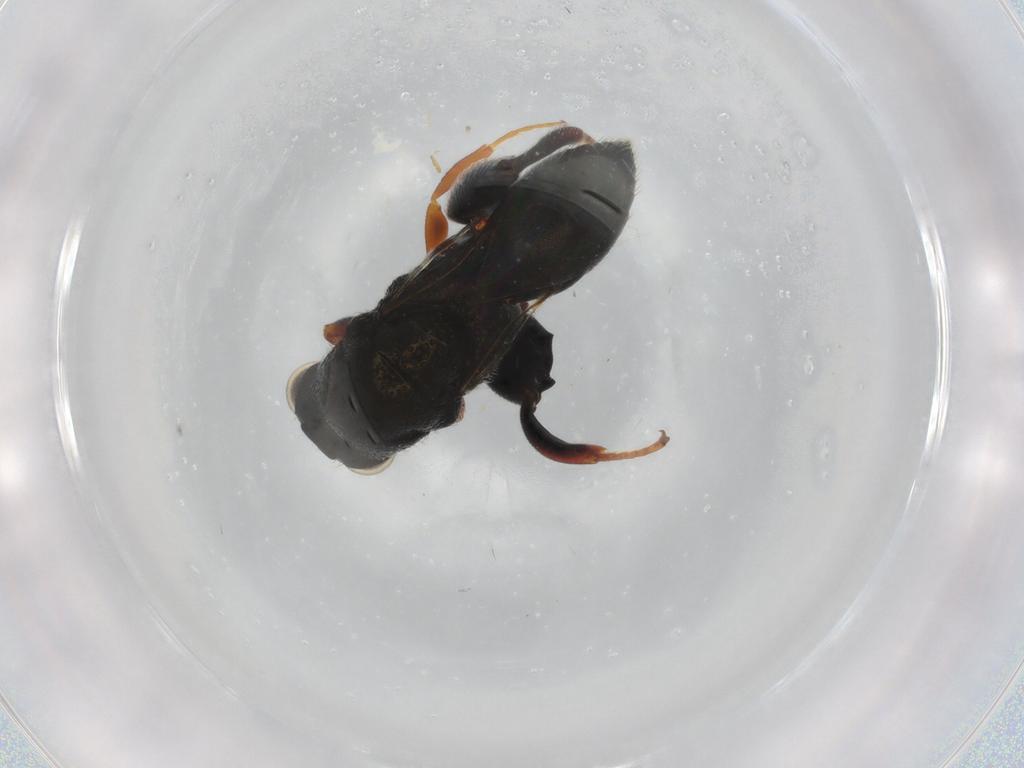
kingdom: Animalia
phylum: Arthropoda
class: Insecta
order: Hymenoptera
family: Chalcididae
